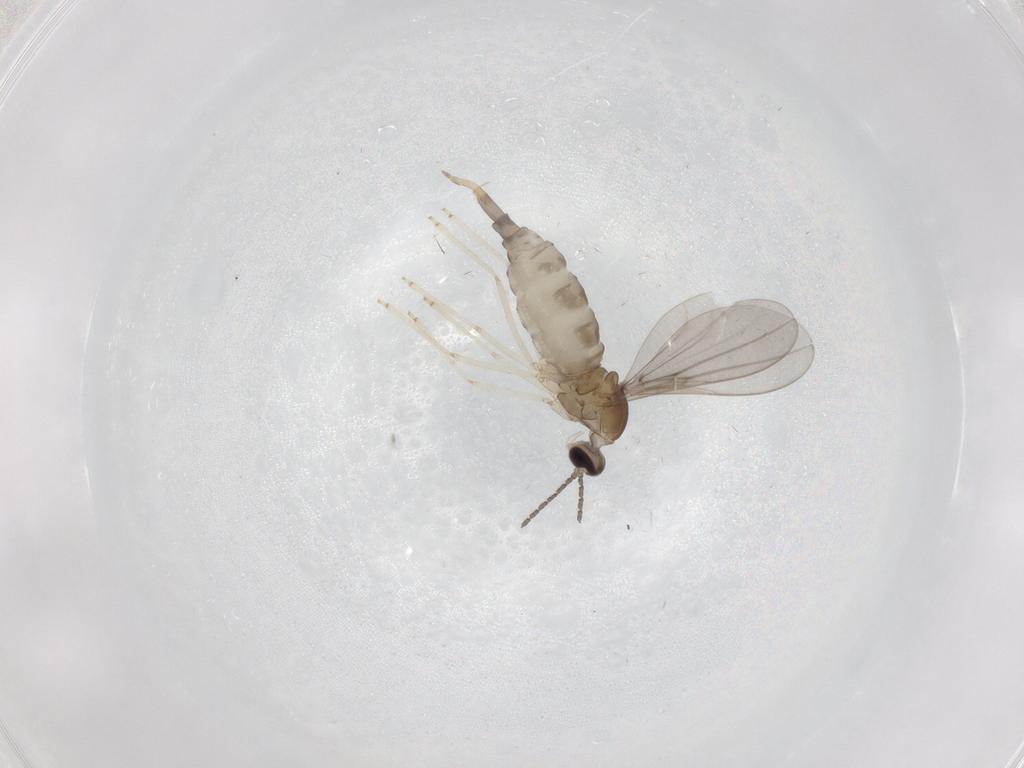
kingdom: Animalia
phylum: Arthropoda
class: Insecta
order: Diptera
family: Cecidomyiidae
